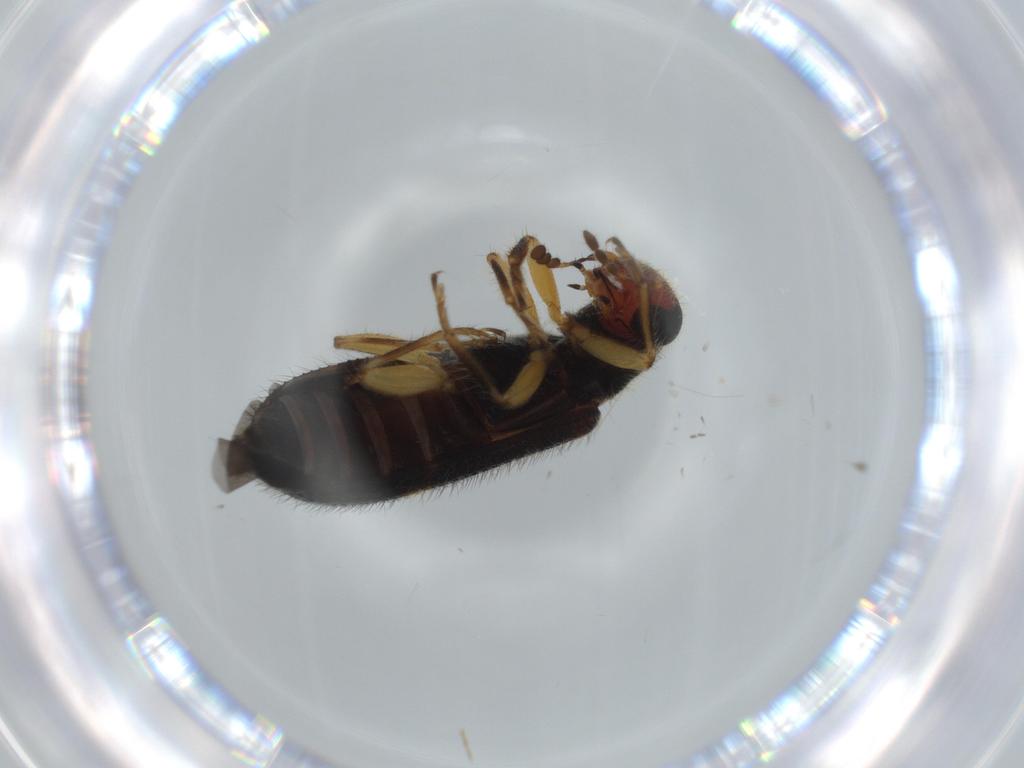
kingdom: Animalia
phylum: Arthropoda
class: Insecta
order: Coleoptera
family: Cleridae
